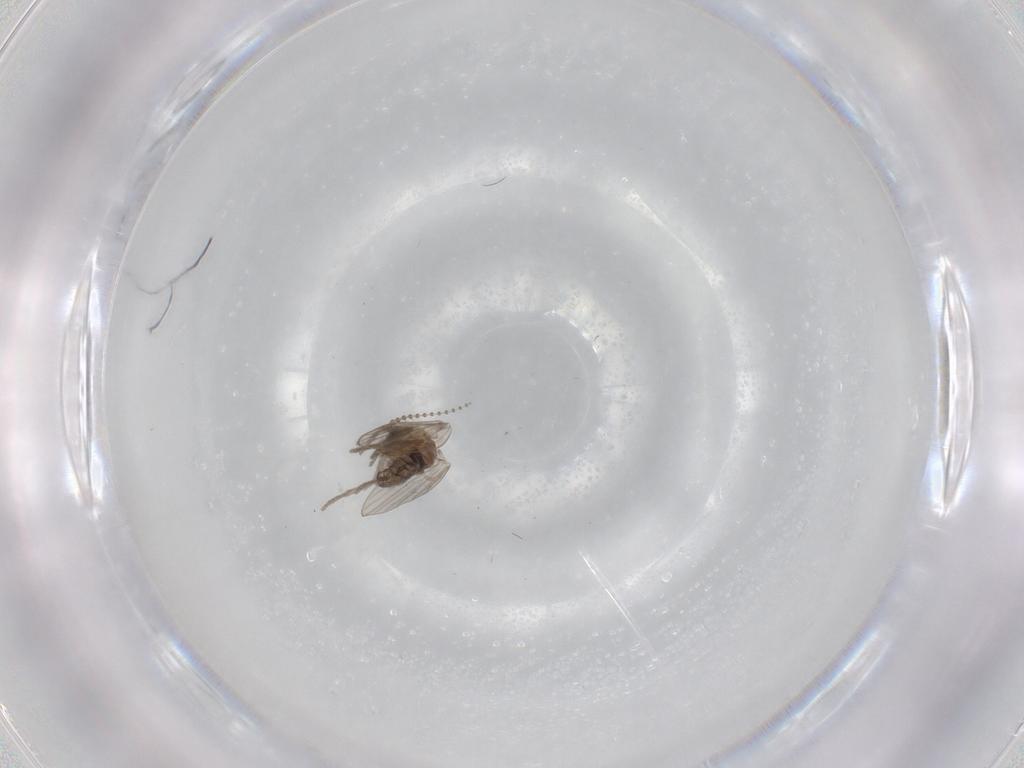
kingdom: Animalia
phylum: Arthropoda
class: Insecta
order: Diptera
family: Psychodidae
